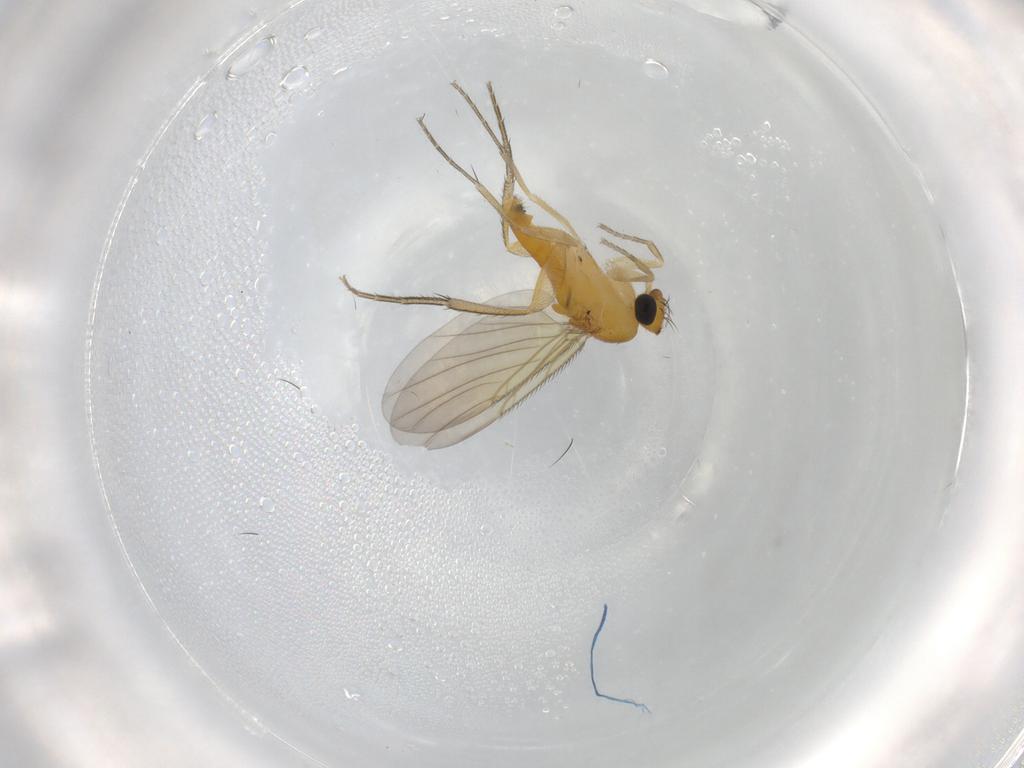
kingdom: Animalia
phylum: Arthropoda
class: Insecta
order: Diptera
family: Phoridae
